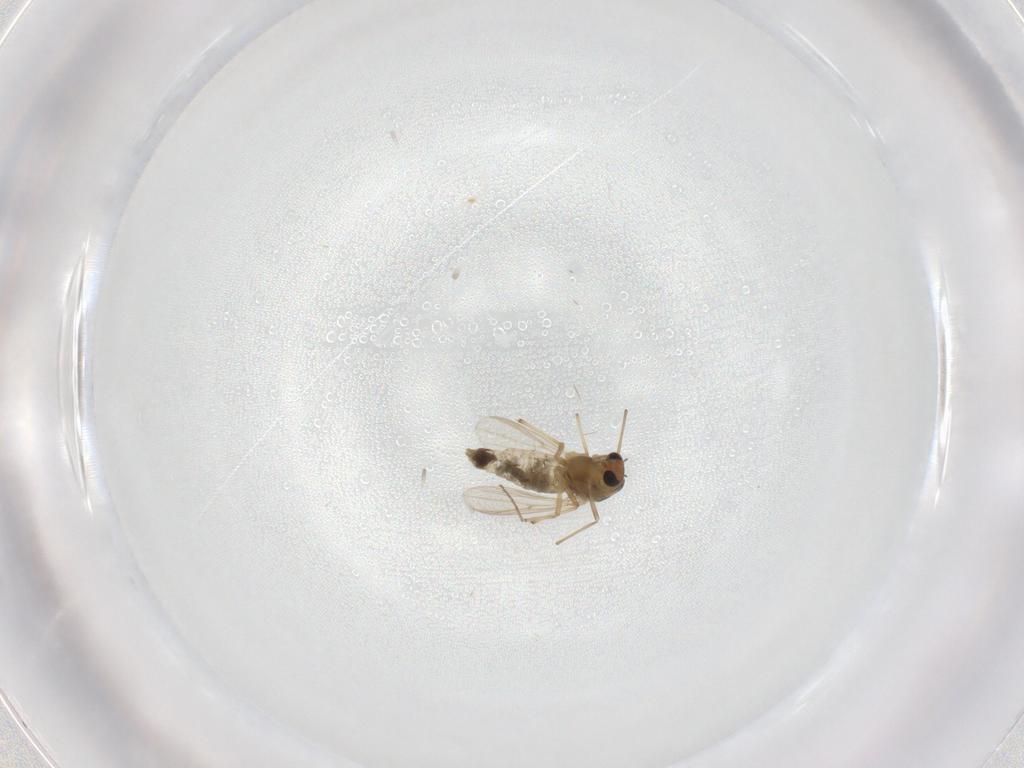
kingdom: Animalia
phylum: Arthropoda
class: Insecta
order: Diptera
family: Chironomidae
